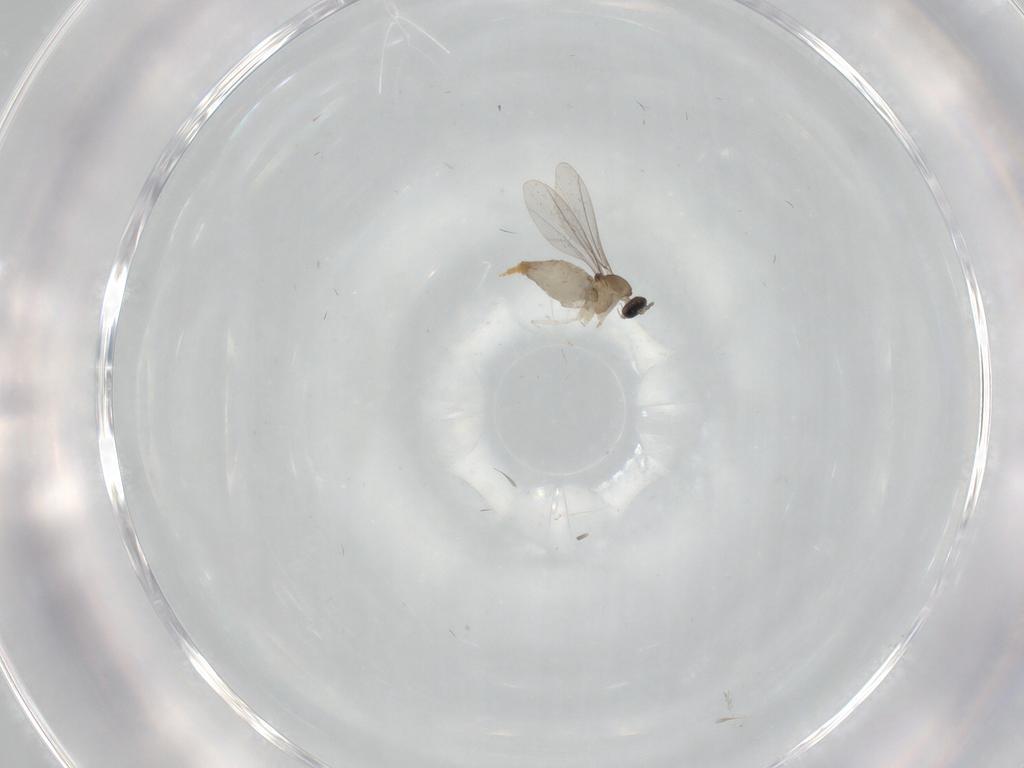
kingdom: Animalia
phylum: Arthropoda
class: Insecta
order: Diptera
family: Cecidomyiidae
